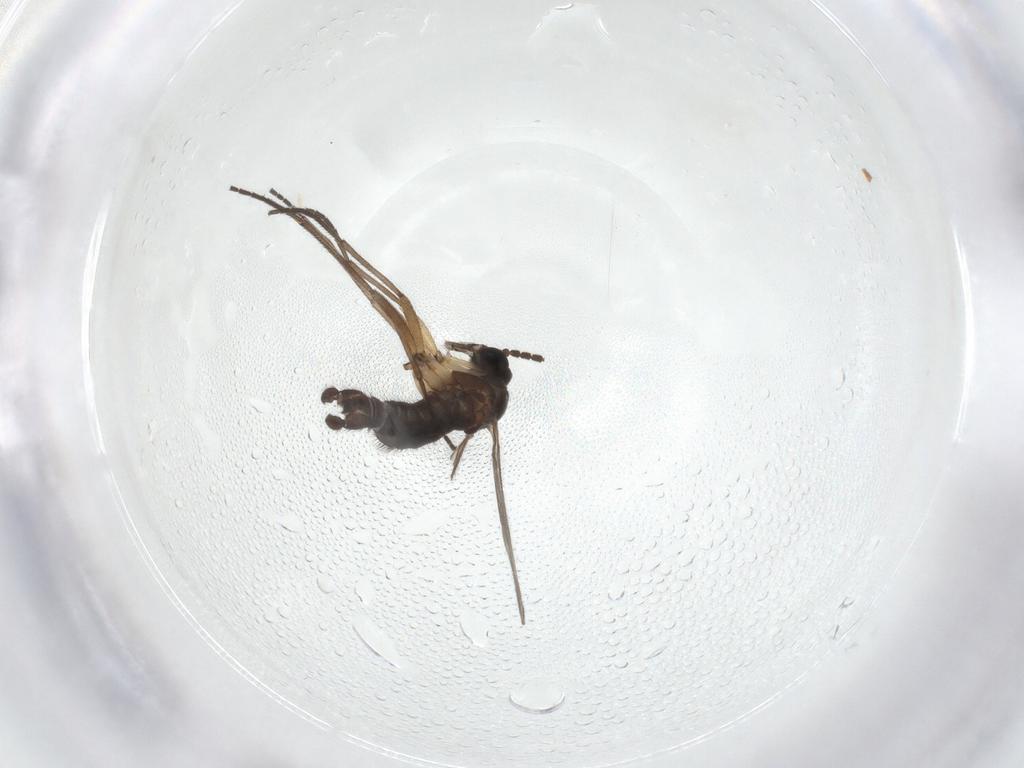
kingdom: Animalia
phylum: Arthropoda
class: Insecta
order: Diptera
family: Sciaridae
